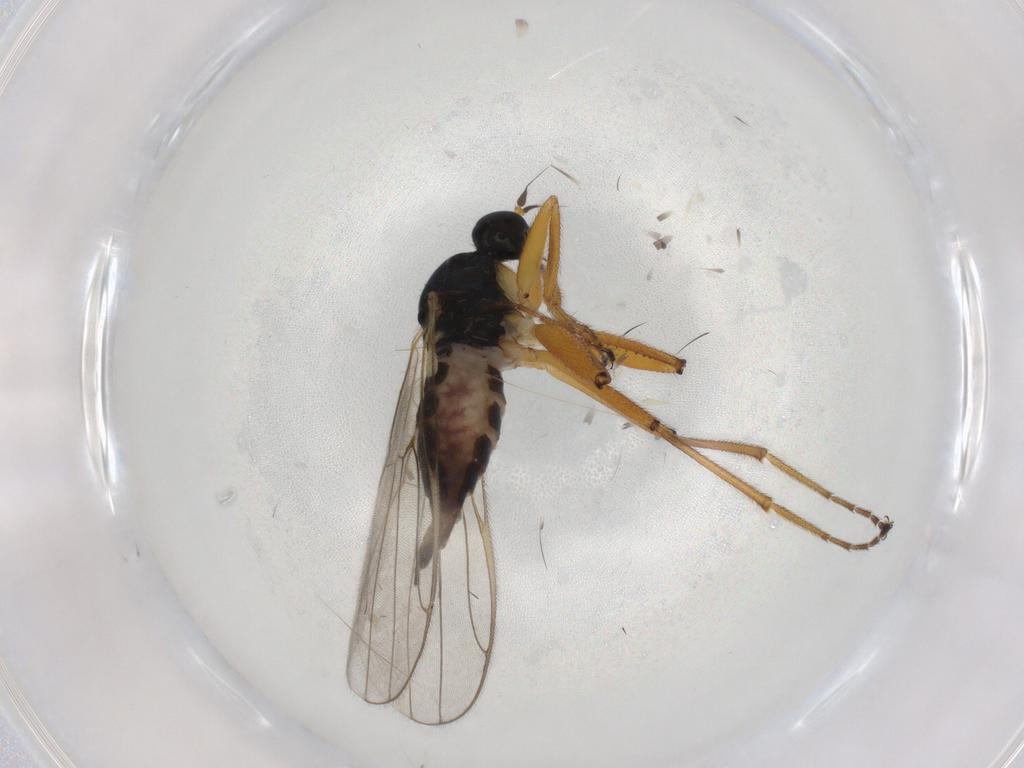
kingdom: Animalia
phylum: Arthropoda
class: Insecta
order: Diptera
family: Hybotidae
